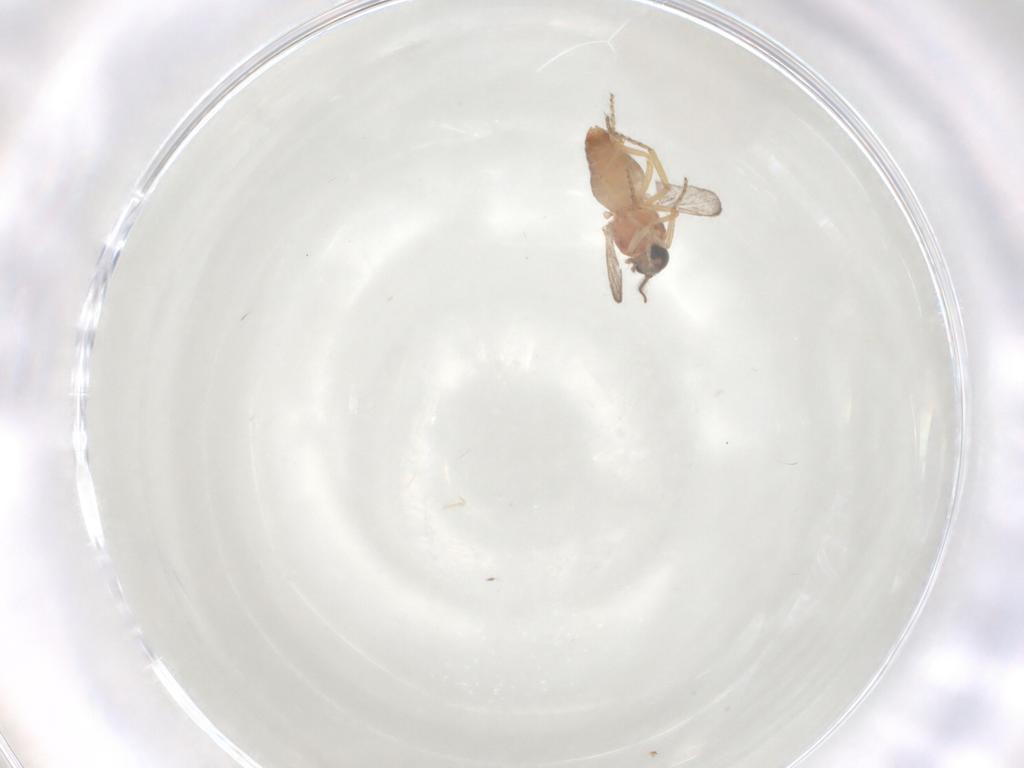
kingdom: Animalia
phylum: Arthropoda
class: Insecta
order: Diptera
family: Ceratopogonidae
